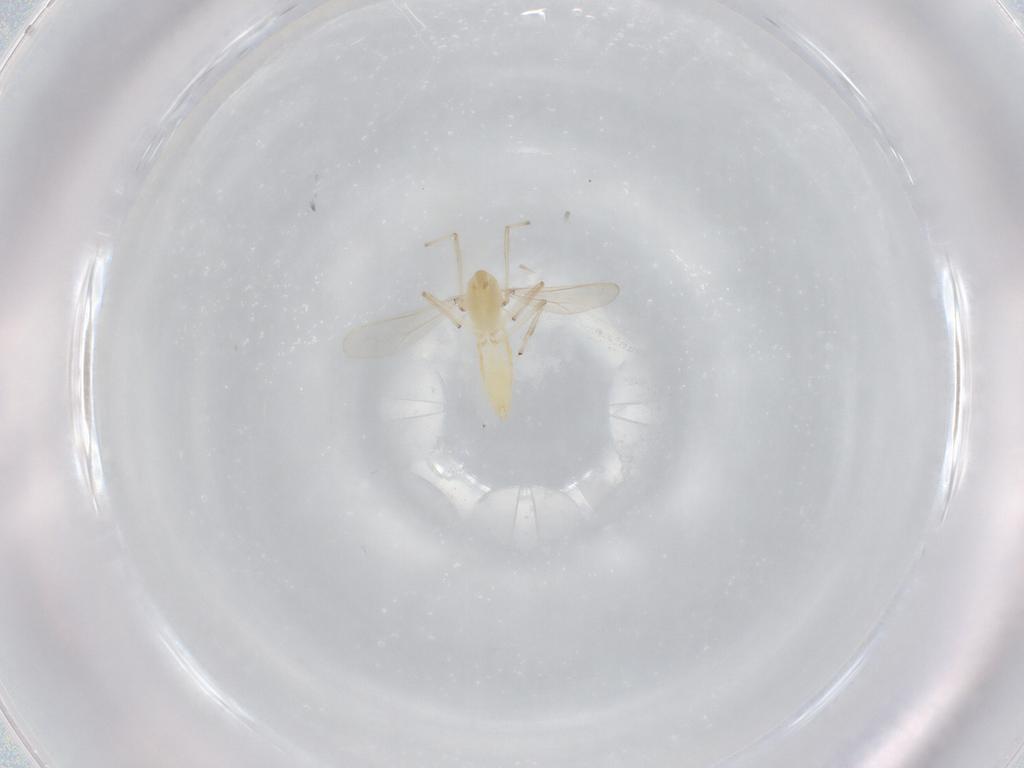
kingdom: Animalia
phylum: Arthropoda
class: Insecta
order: Diptera
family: Chironomidae
